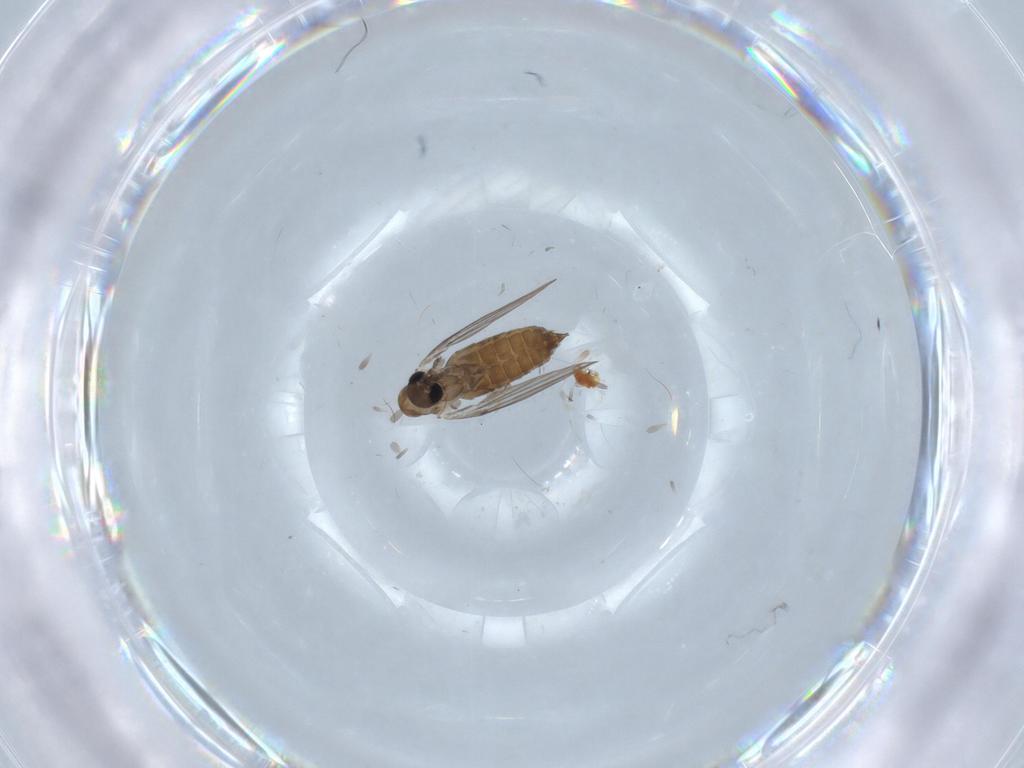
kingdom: Animalia
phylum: Arthropoda
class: Insecta
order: Diptera
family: Psychodidae
